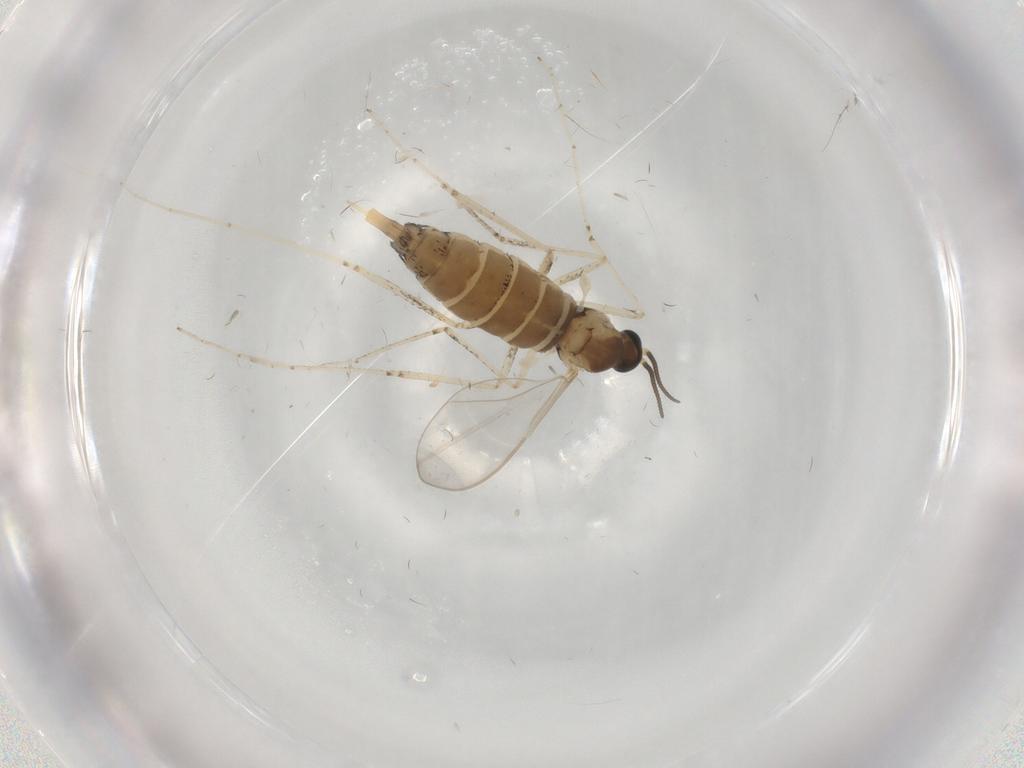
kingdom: Animalia
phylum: Arthropoda
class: Insecta
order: Diptera
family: Cecidomyiidae
